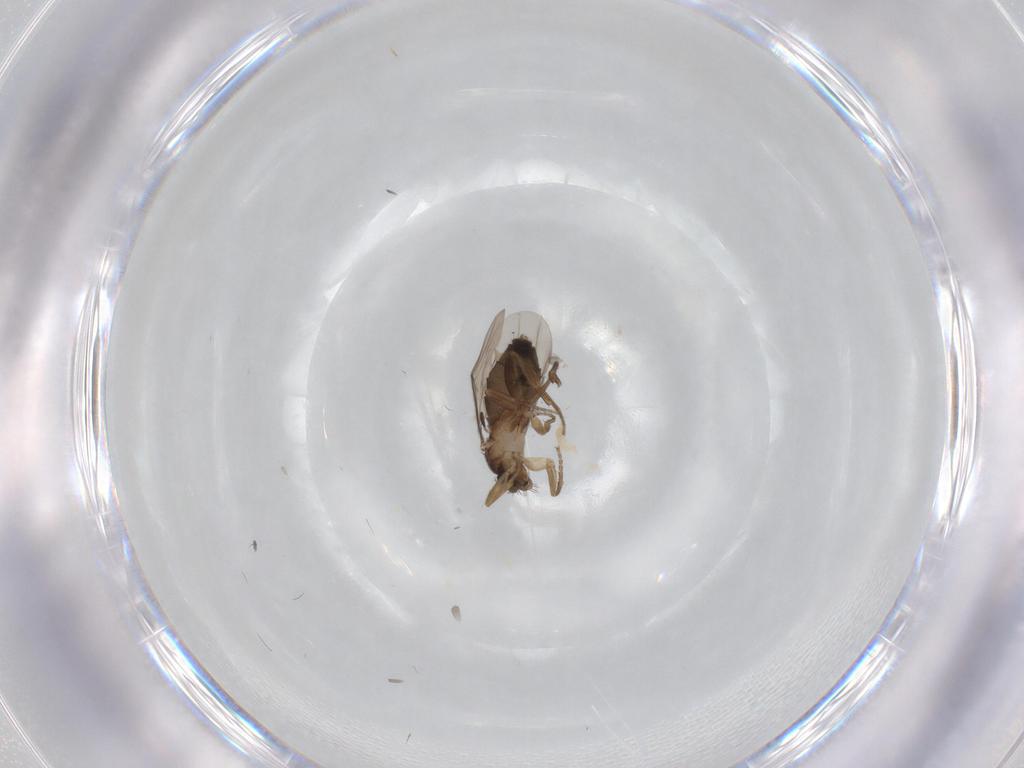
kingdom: Animalia
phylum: Arthropoda
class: Insecta
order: Diptera
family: Phoridae
